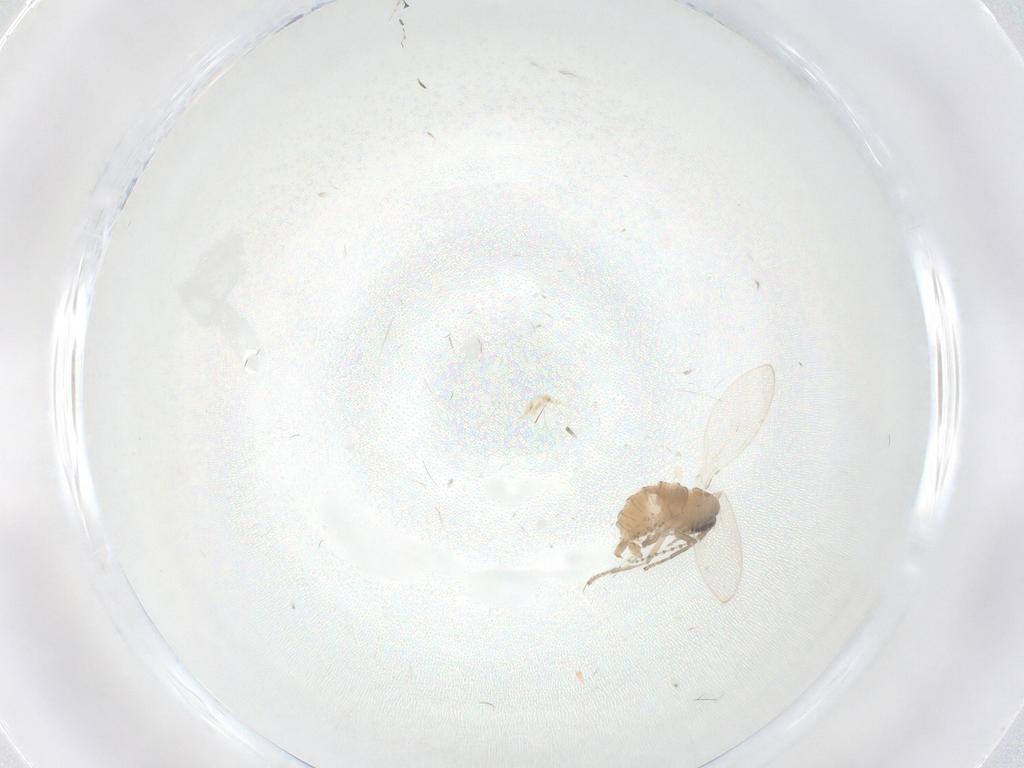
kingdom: Animalia
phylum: Arthropoda
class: Insecta
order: Diptera
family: Psychodidae
